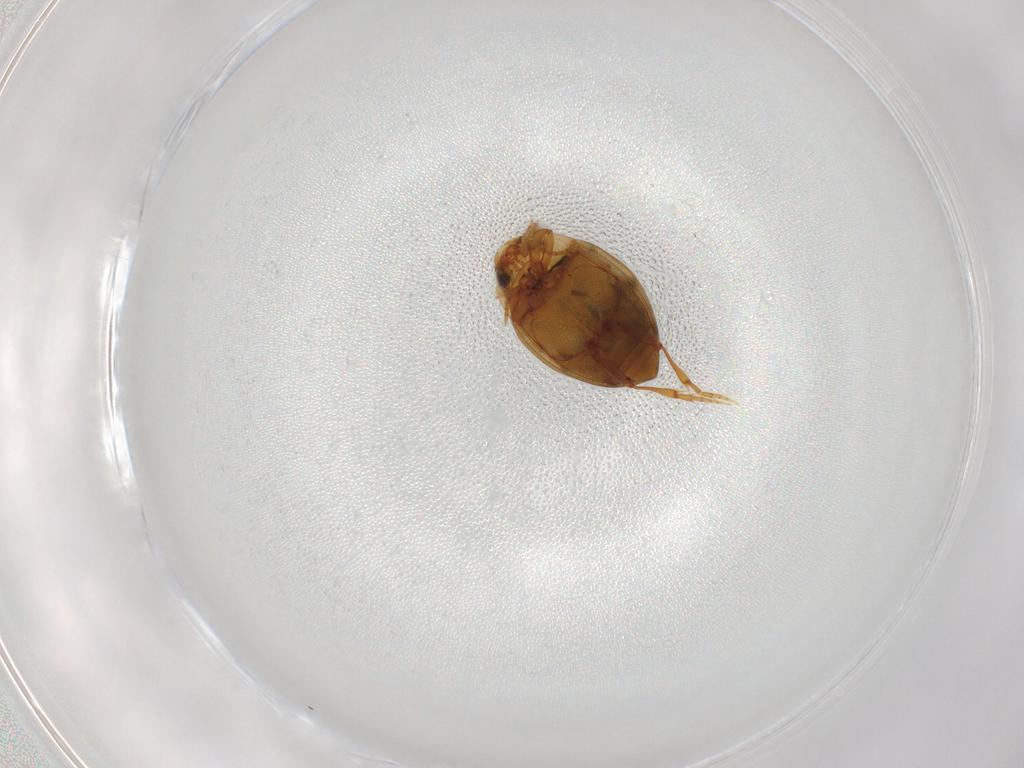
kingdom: Animalia
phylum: Arthropoda
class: Insecta
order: Coleoptera
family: Dytiscidae
